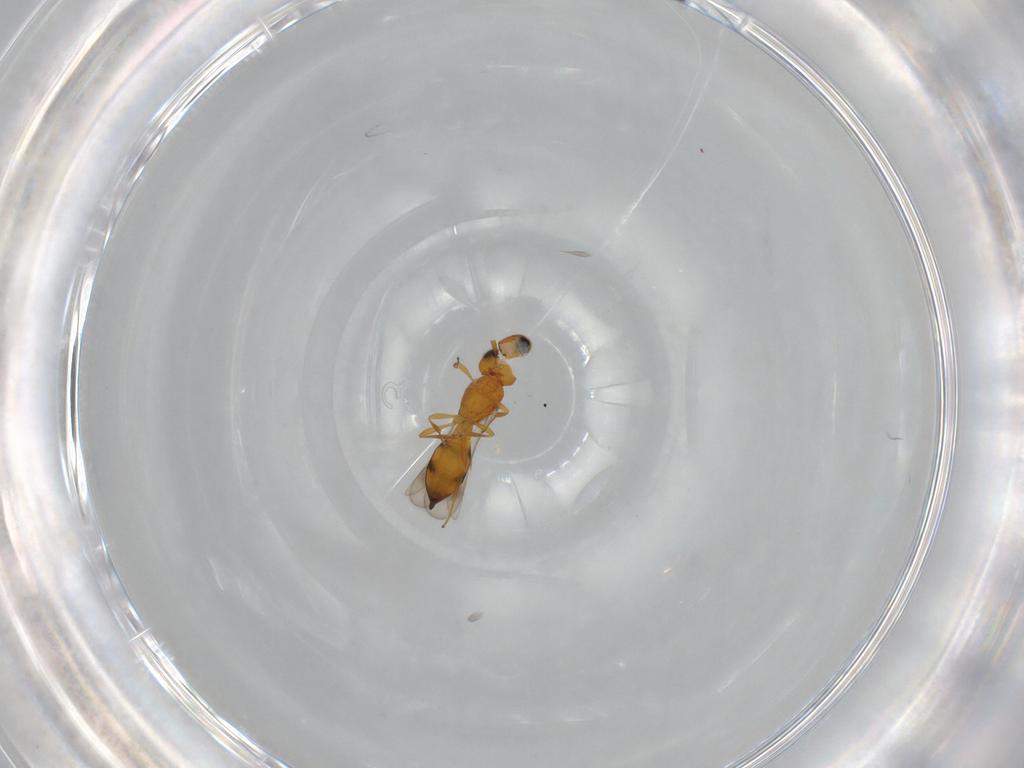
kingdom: Animalia
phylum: Arthropoda
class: Insecta
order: Hymenoptera
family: Scelionidae
